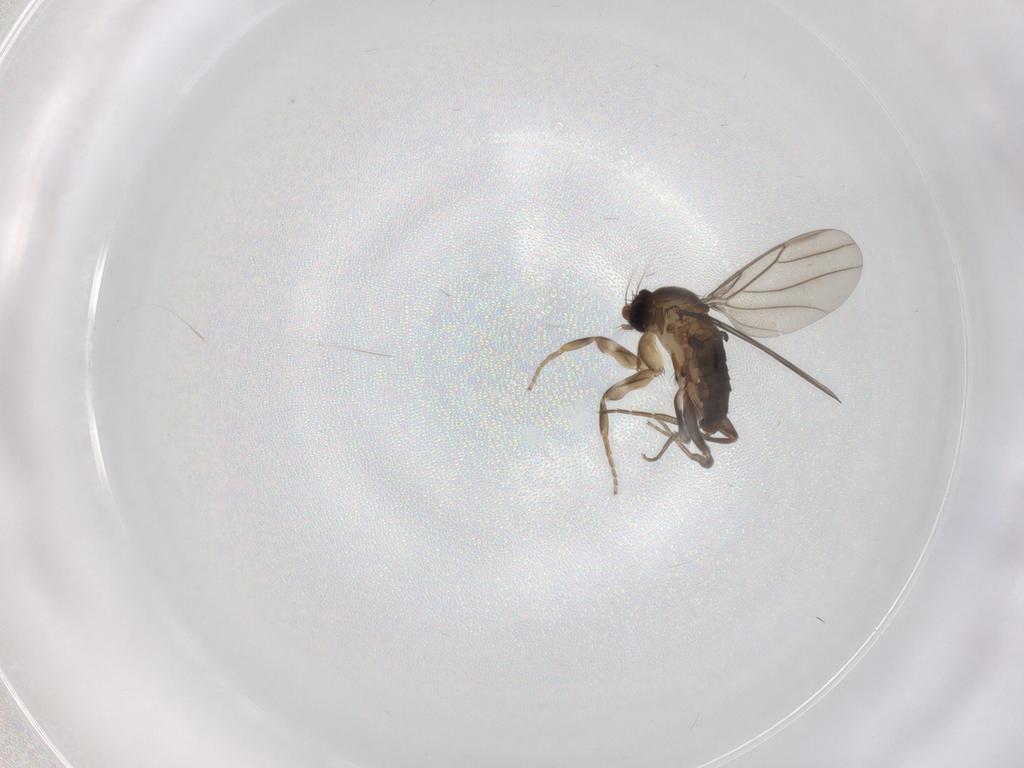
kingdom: Animalia
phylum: Arthropoda
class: Insecta
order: Diptera
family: Phoridae
